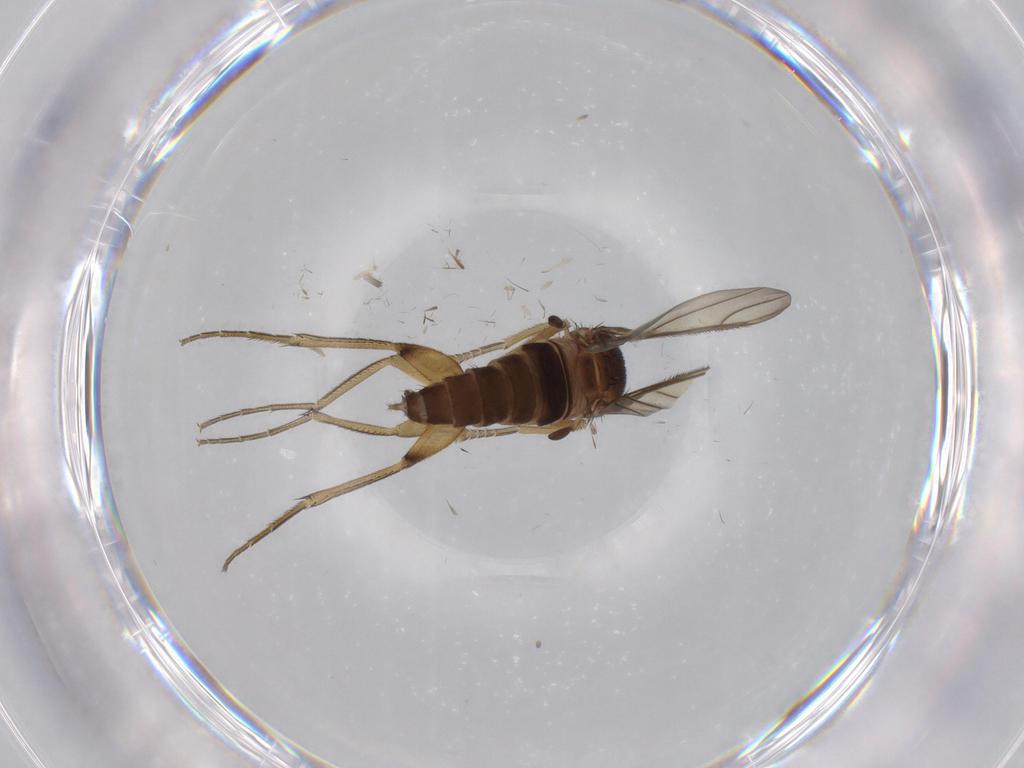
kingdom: Animalia
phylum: Arthropoda
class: Insecta
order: Diptera
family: Phoridae
